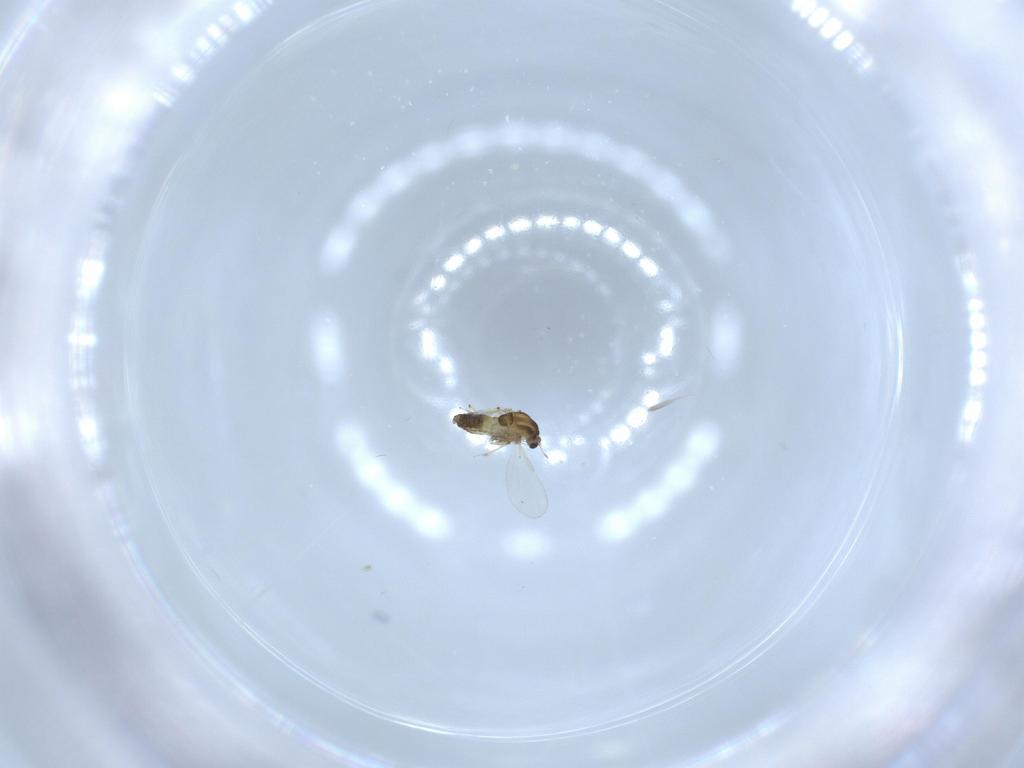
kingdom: Animalia
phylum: Arthropoda
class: Insecta
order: Diptera
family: Chironomidae
